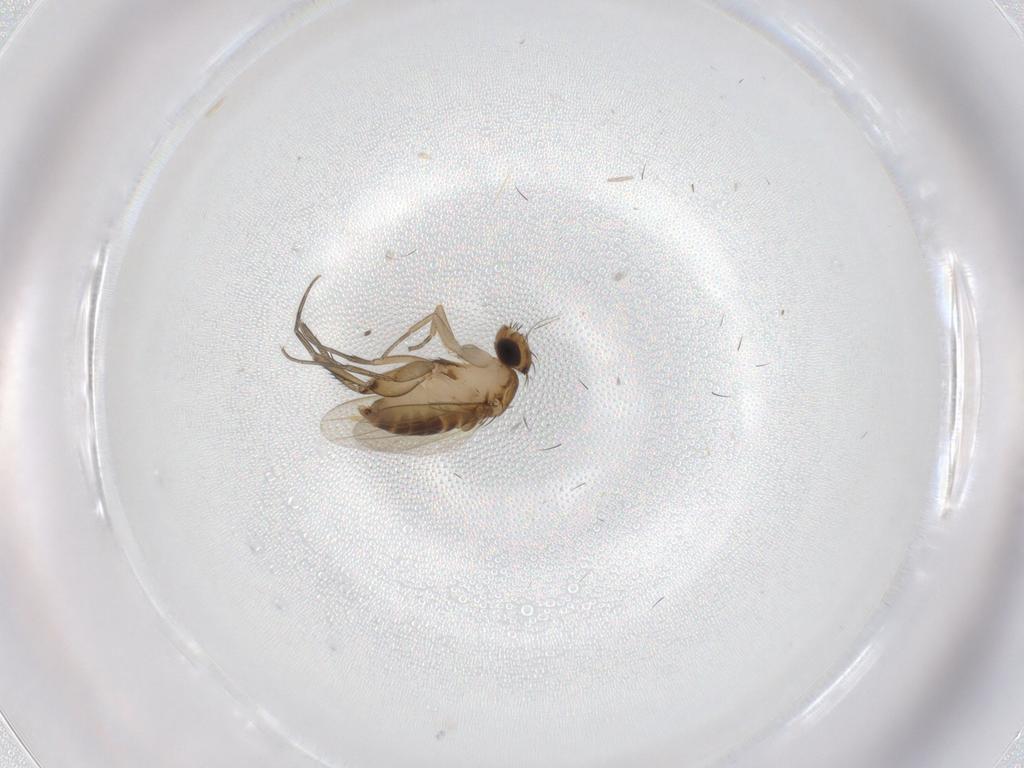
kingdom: Animalia
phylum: Arthropoda
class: Insecta
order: Diptera
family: Phoridae
